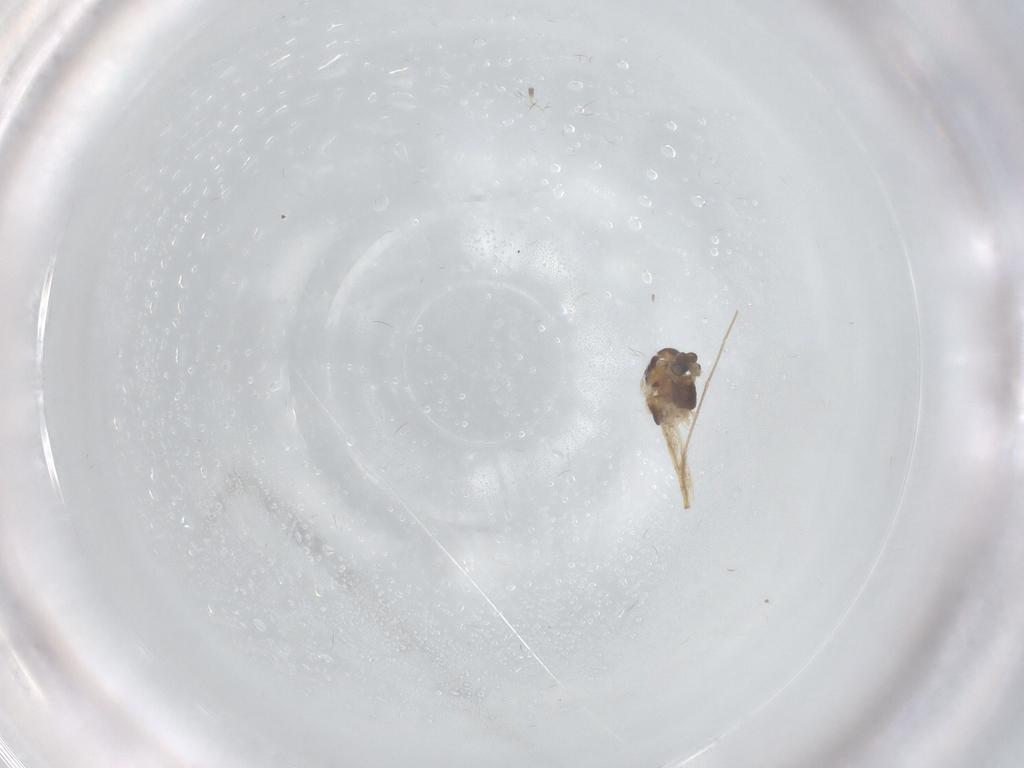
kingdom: Animalia
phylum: Arthropoda
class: Insecta
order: Diptera
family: Chironomidae
